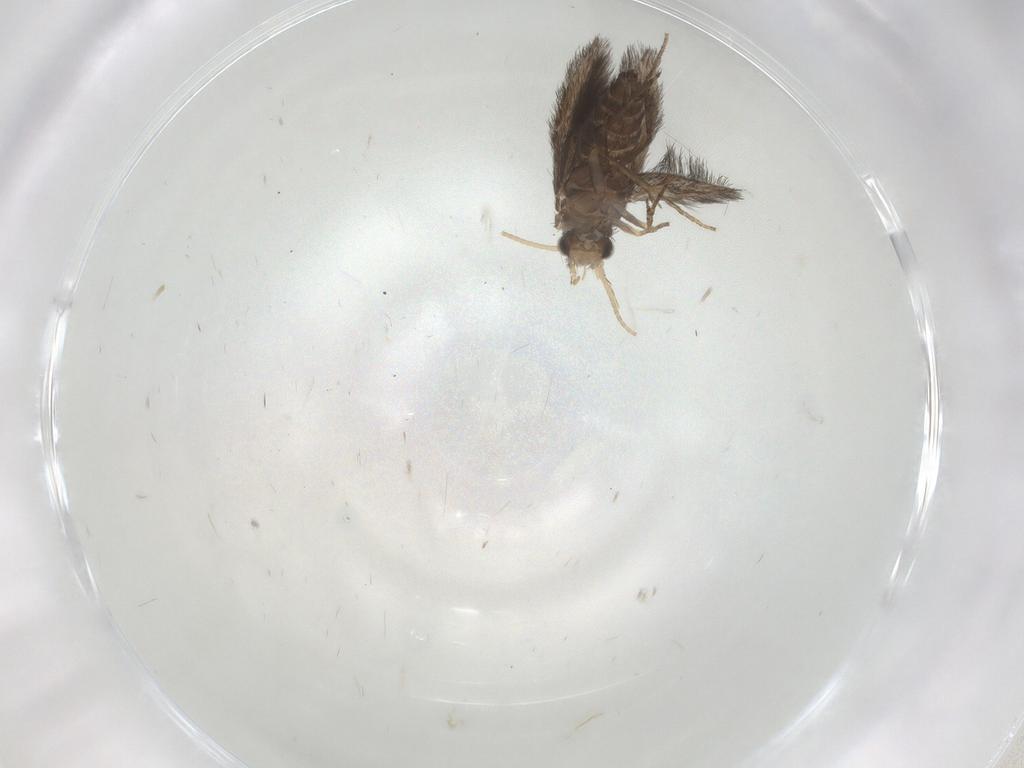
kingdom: Animalia
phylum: Arthropoda
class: Insecta
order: Trichoptera
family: Hydroptilidae
